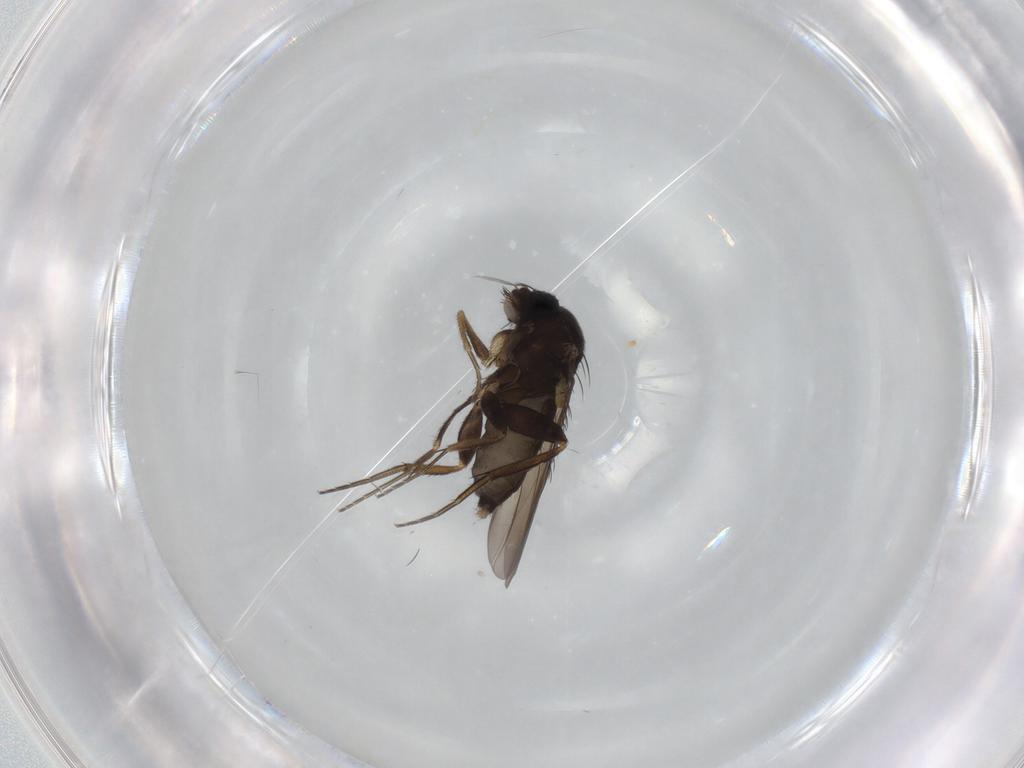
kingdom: Animalia
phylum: Arthropoda
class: Insecta
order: Diptera
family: Phoridae
